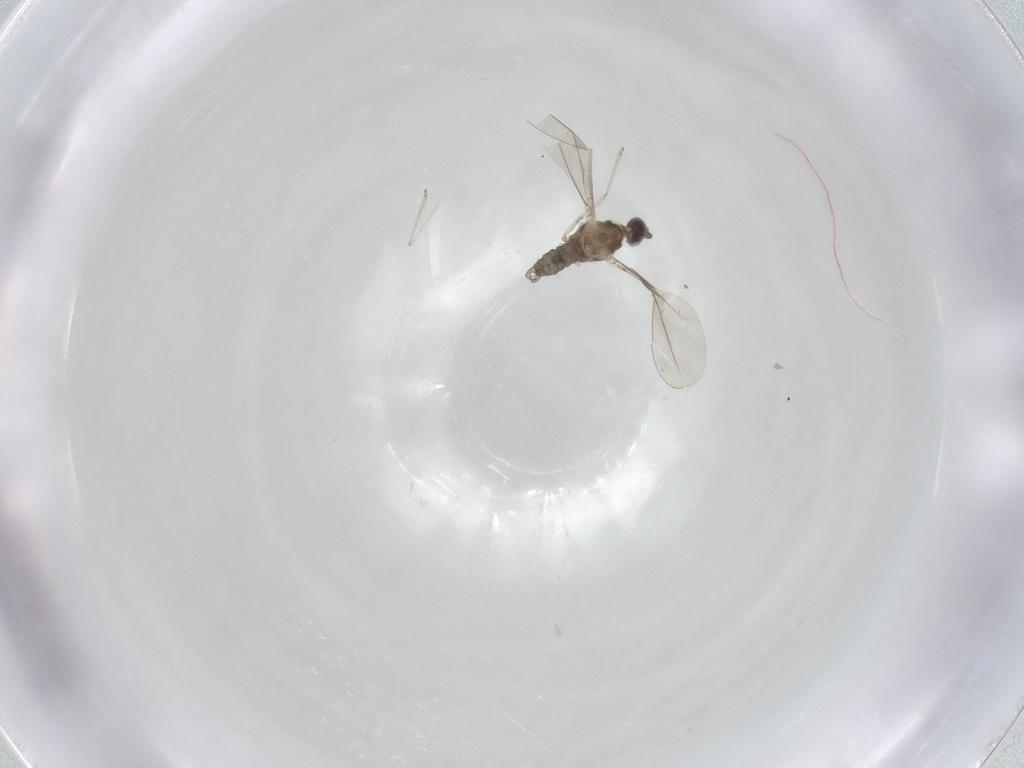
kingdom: Animalia
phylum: Arthropoda
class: Insecta
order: Diptera
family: Cecidomyiidae
